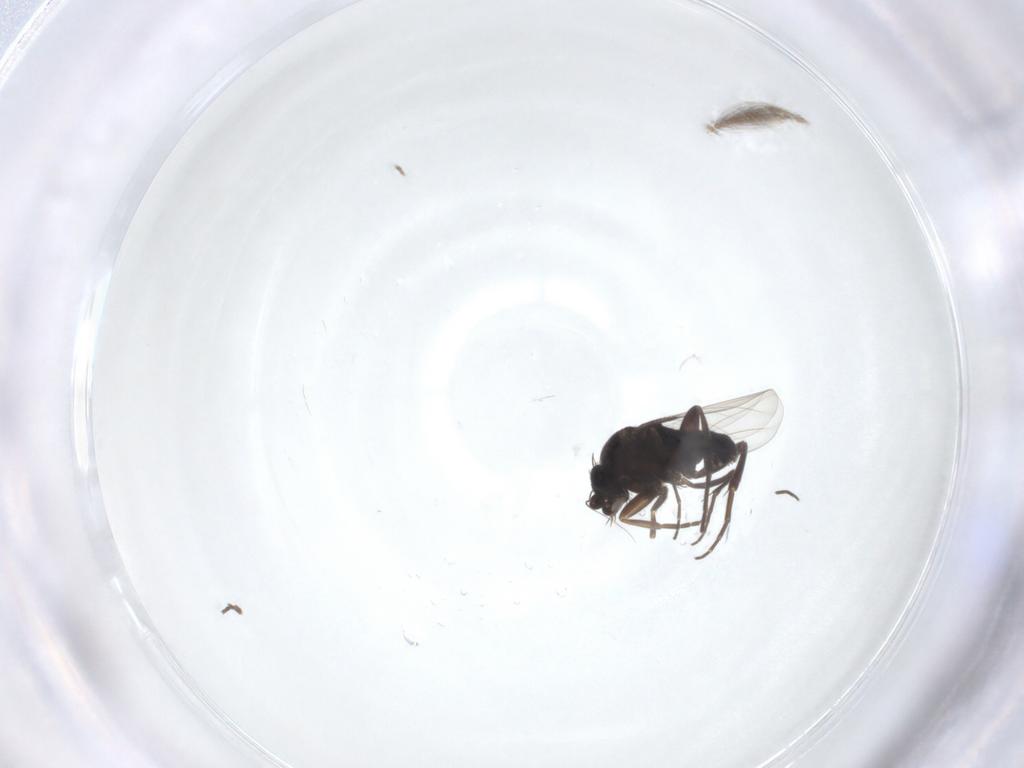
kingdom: Animalia
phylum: Arthropoda
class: Insecta
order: Diptera
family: Ceratopogonidae
